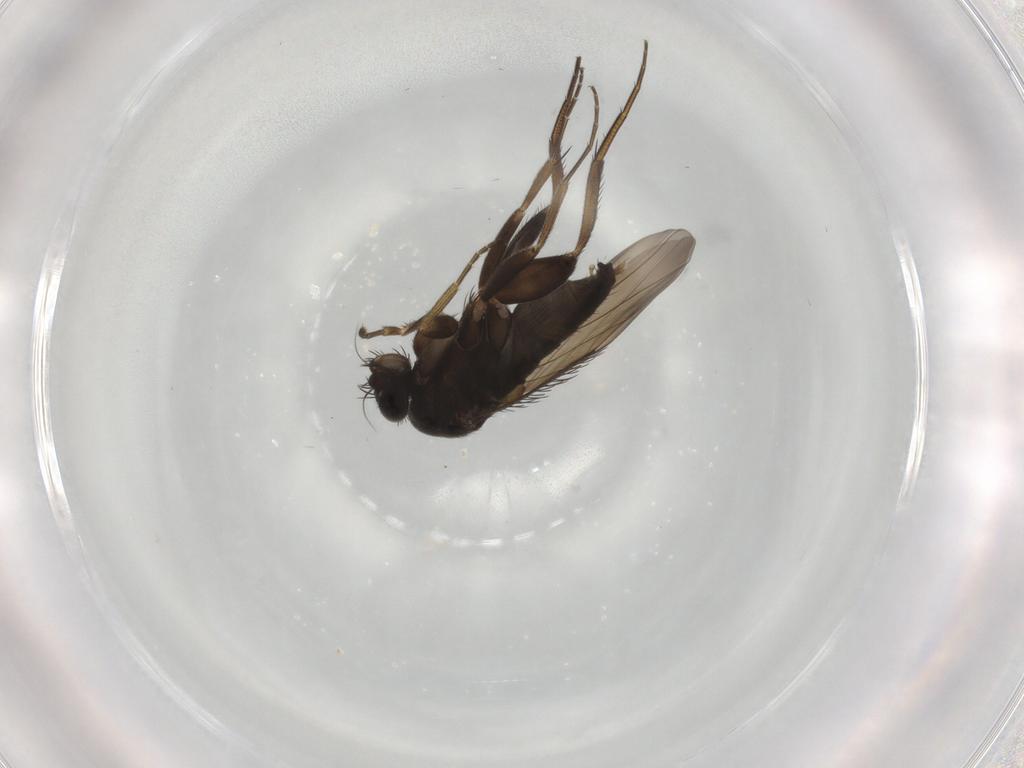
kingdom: Animalia
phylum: Arthropoda
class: Insecta
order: Diptera
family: Phoridae
